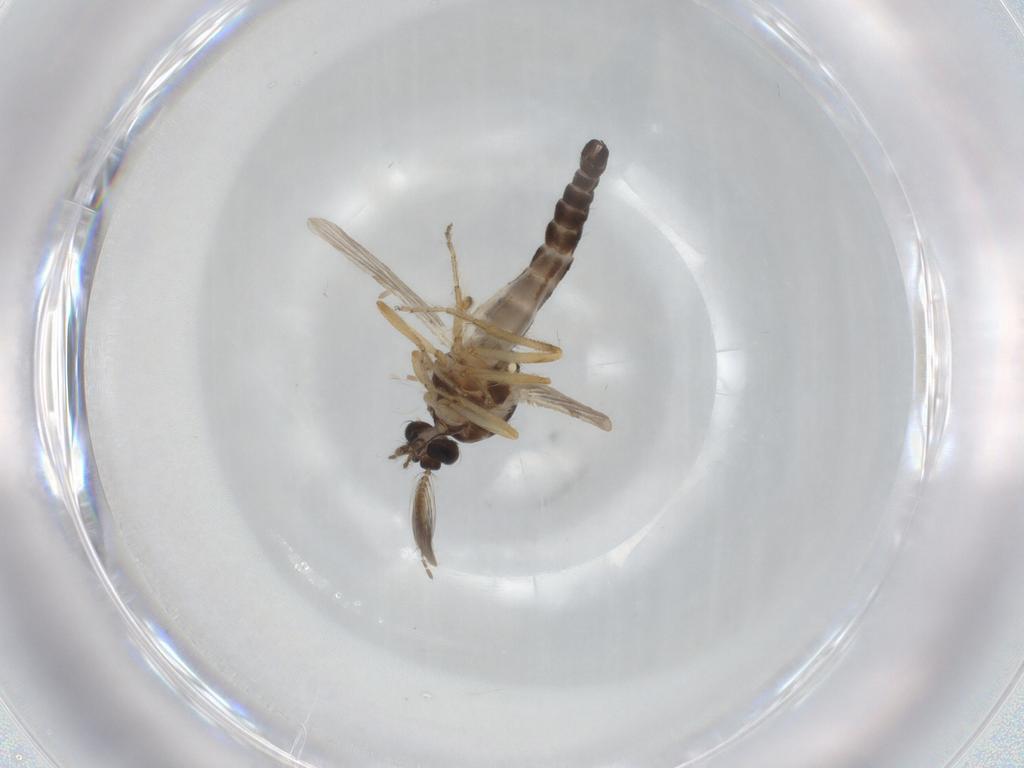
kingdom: Animalia
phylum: Arthropoda
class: Insecta
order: Diptera
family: Ceratopogonidae
